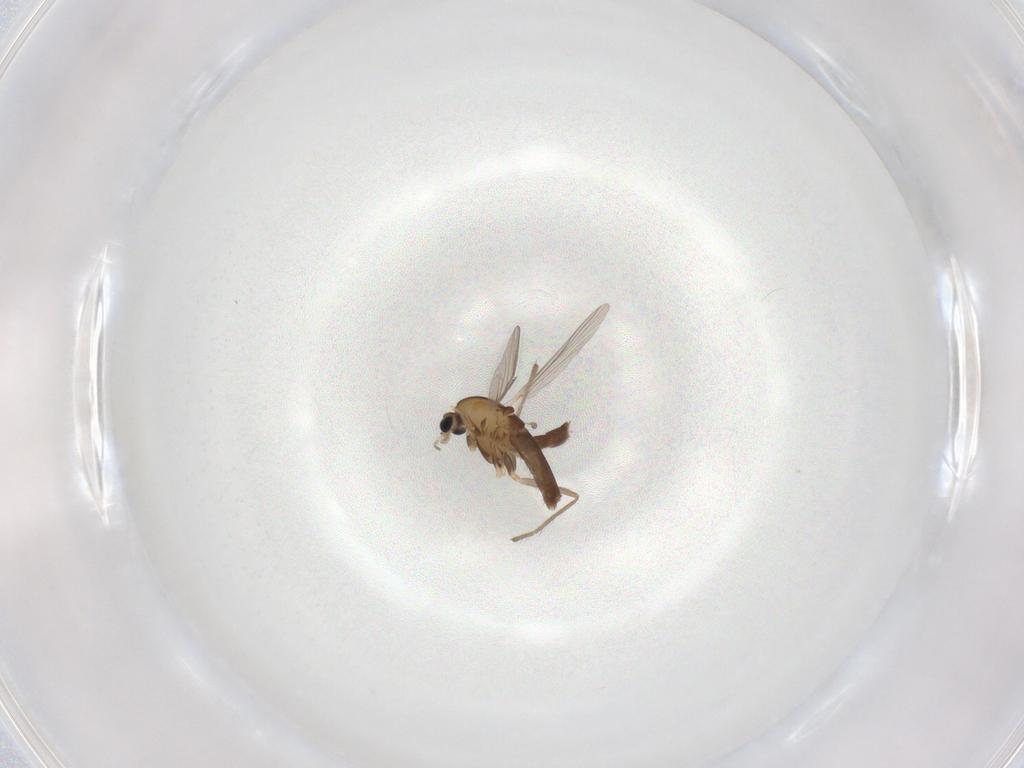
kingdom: Animalia
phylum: Arthropoda
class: Insecta
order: Diptera
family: Chironomidae
